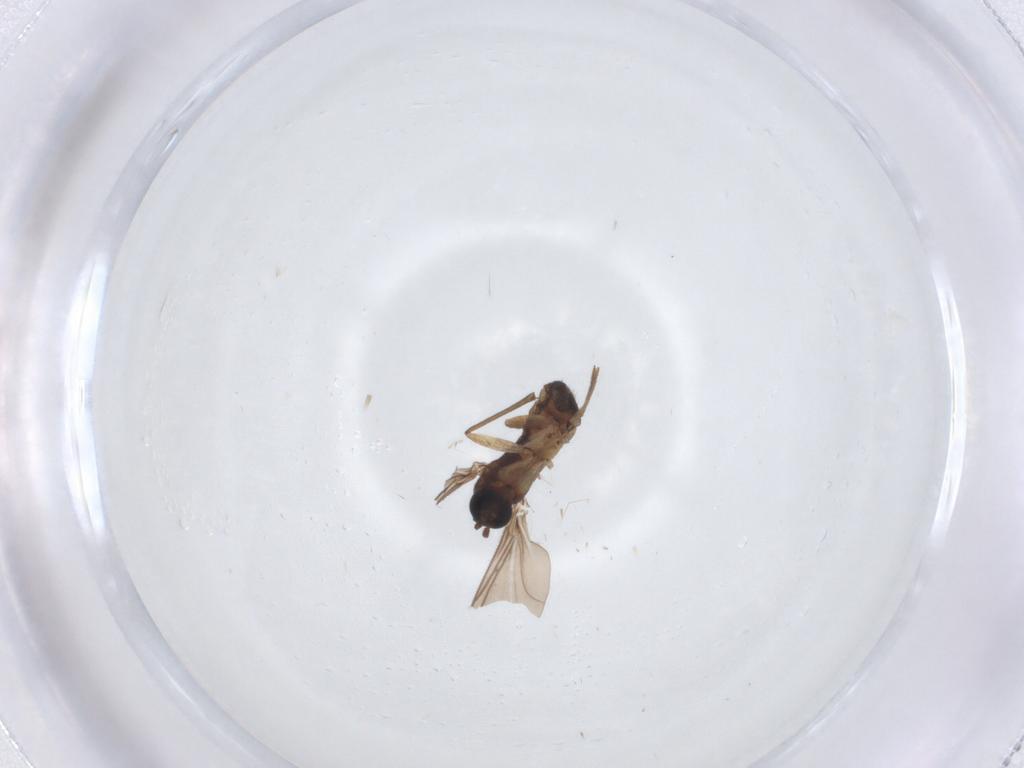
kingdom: Animalia
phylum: Arthropoda
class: Insecta
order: Diptera
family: Sciaridae
